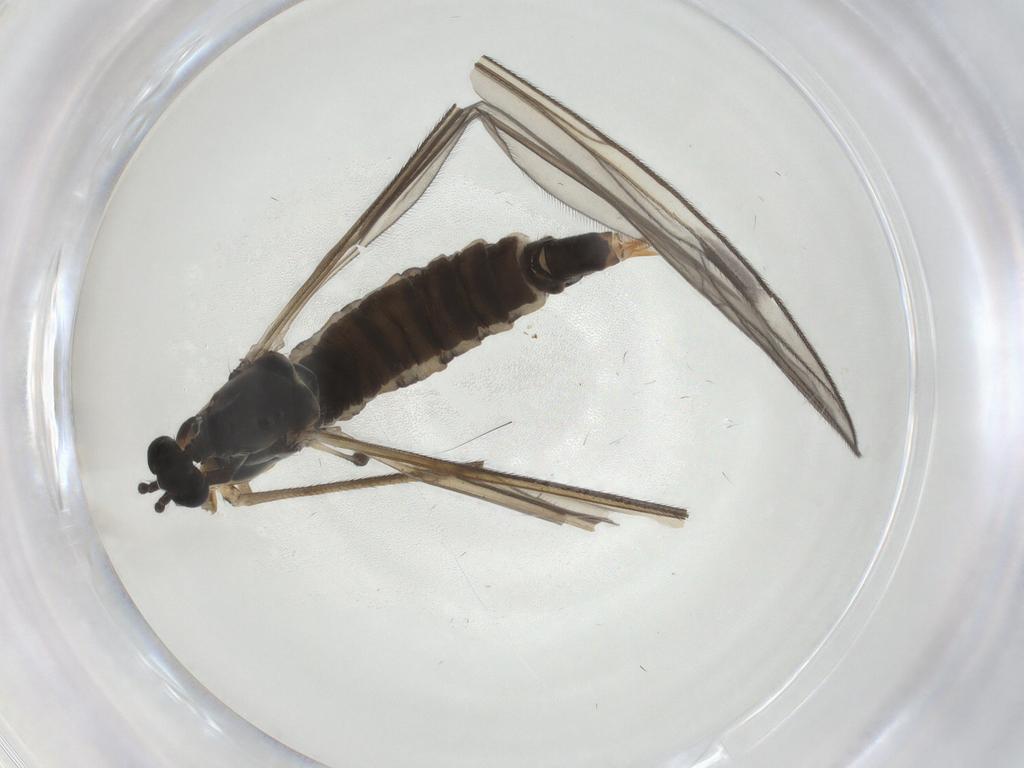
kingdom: Animalia
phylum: Arthropoda
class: Insecta
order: Diptera
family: Limoniidae
